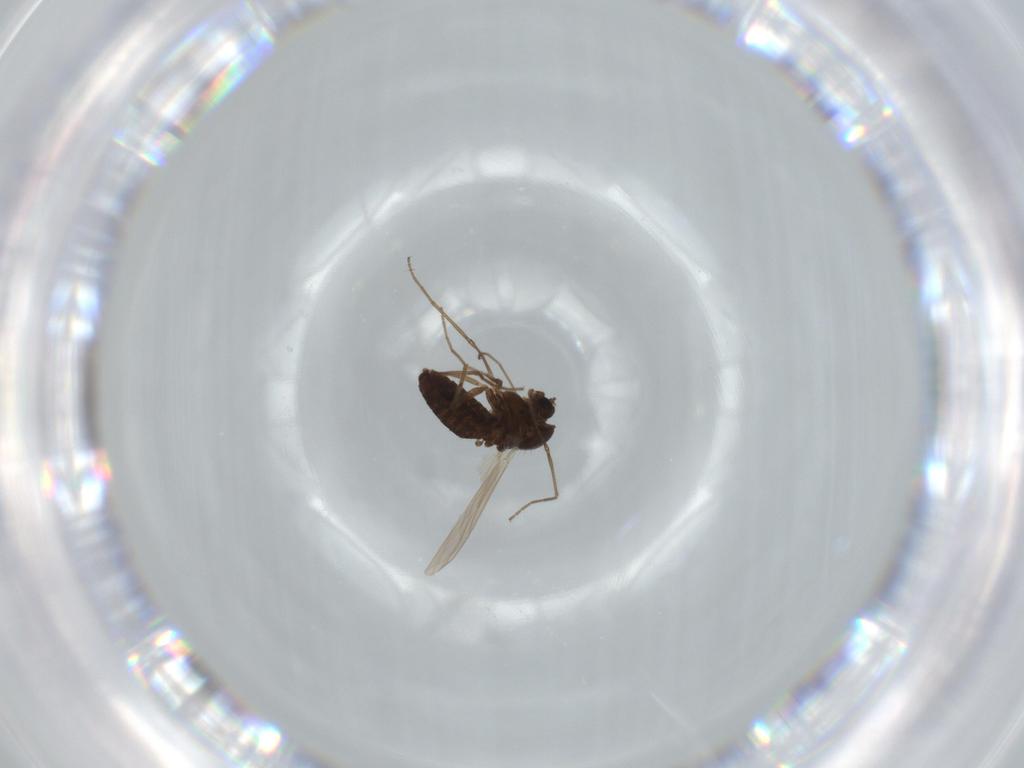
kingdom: Animalia
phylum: Arthropoda
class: Insecta
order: Diptera
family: Chironomidae
